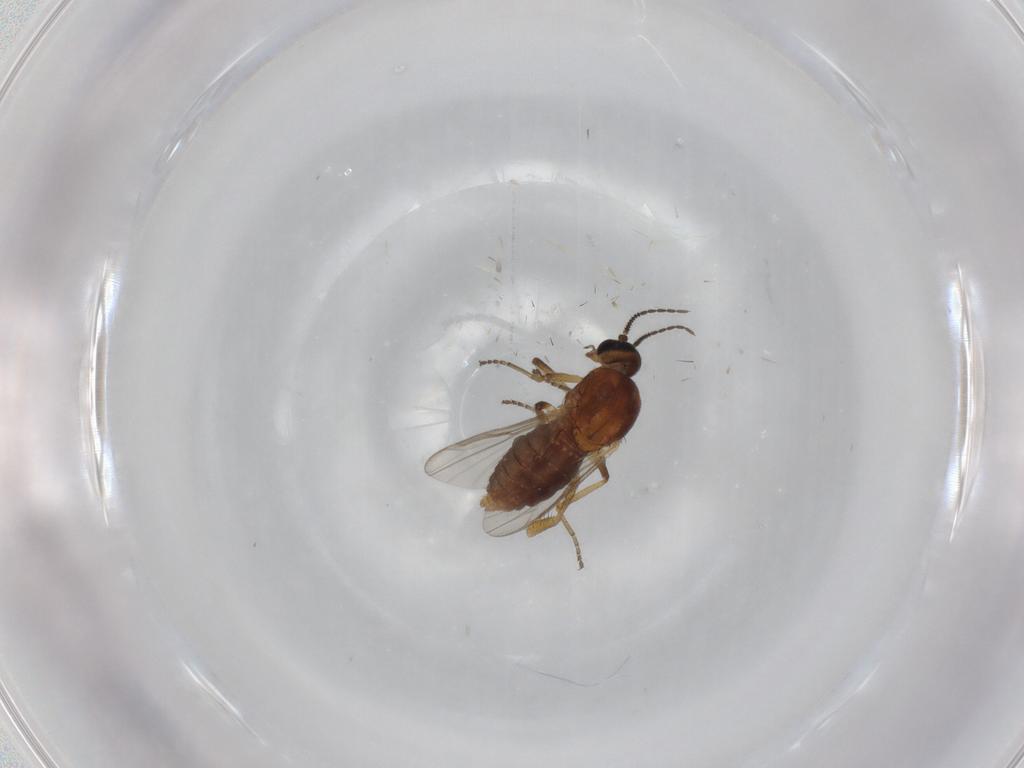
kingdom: Animalia
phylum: Arthropoda
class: Insecta
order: Diptera
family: Ceratopogonidae
